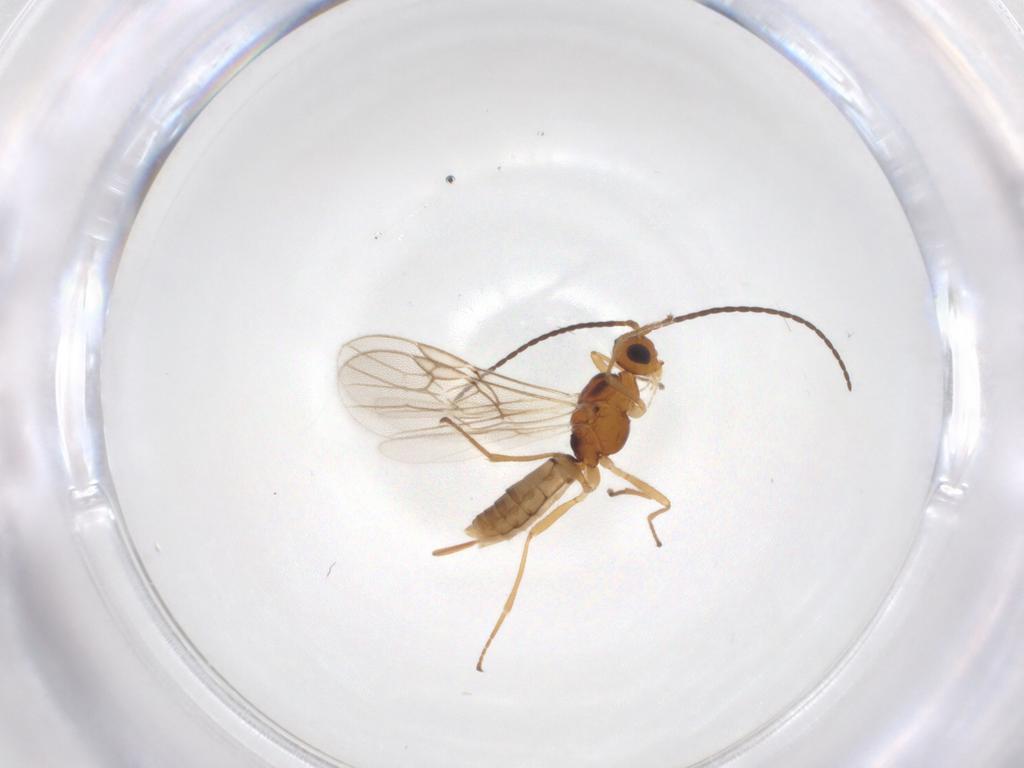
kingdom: Animalia
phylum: Arthropoda
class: Insecta
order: Hymenoptera
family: Braconidae
